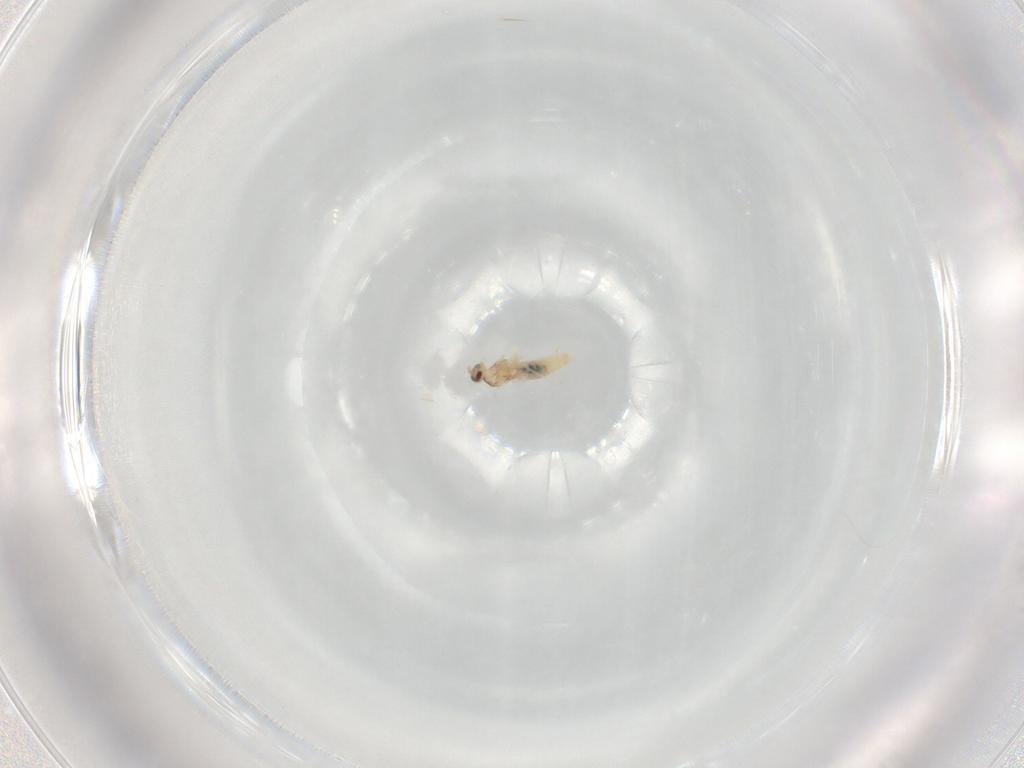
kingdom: Animalia
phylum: Arthropoda
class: Insecta
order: Diptera
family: Cecidomyiidae
